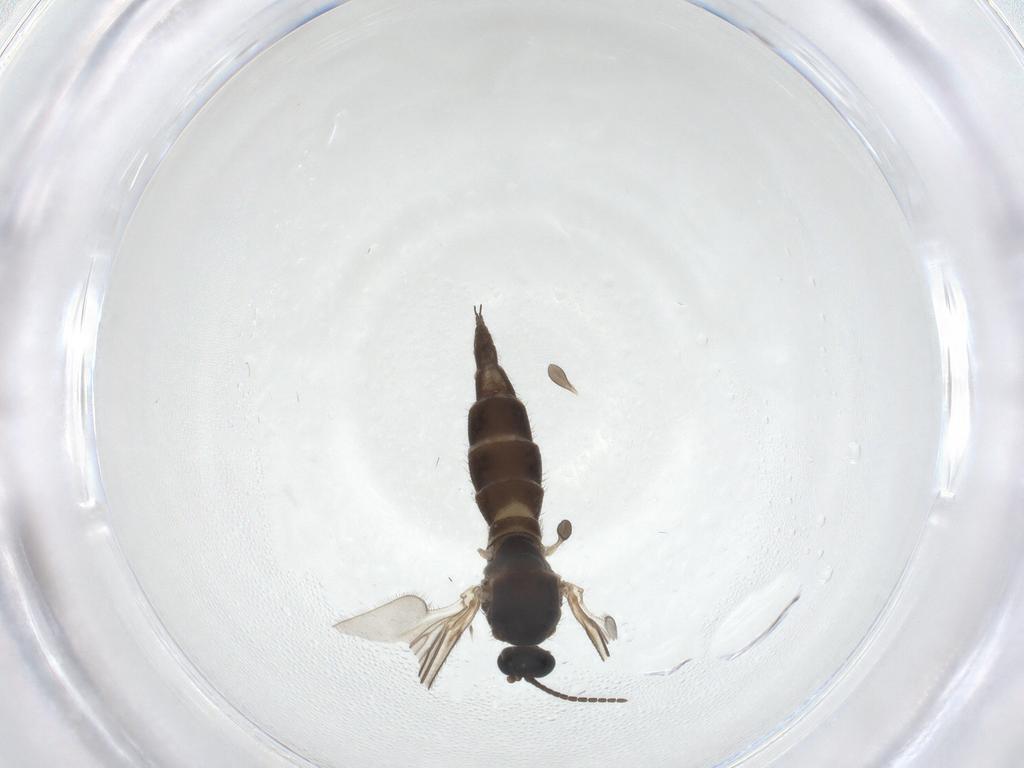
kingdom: Animalia
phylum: Arthropoda
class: Insecta
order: Diptera
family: Sciaridae
